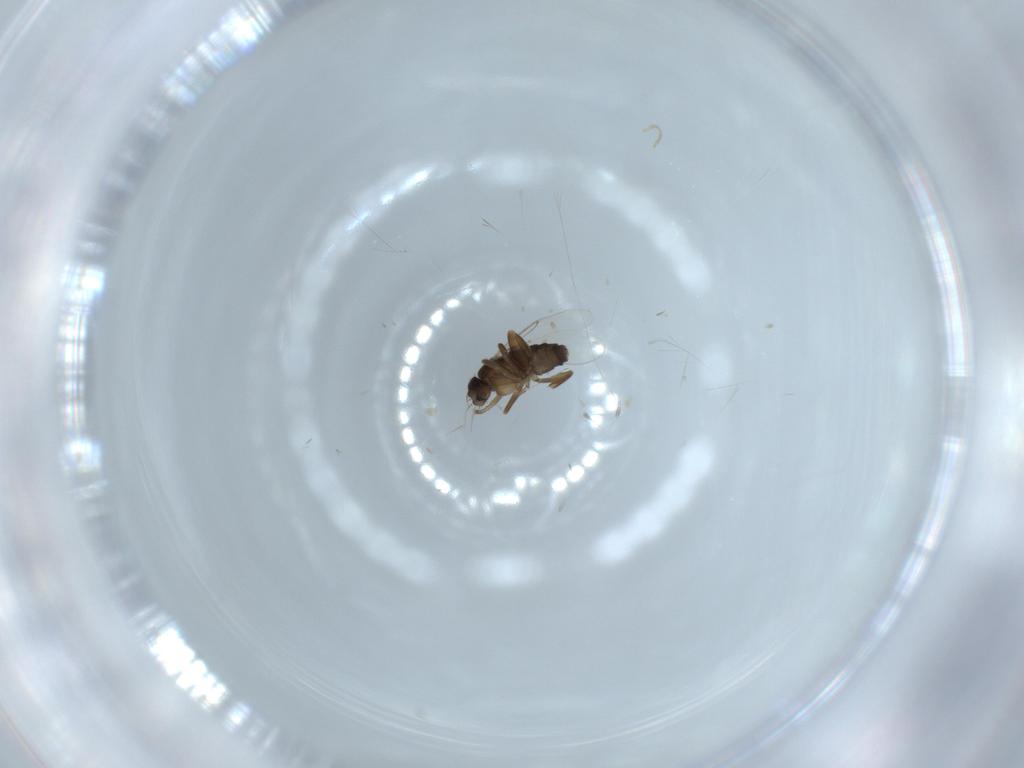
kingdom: Animalia
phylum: Arthropoda
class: Insecta
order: Diptera
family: Phoridae
